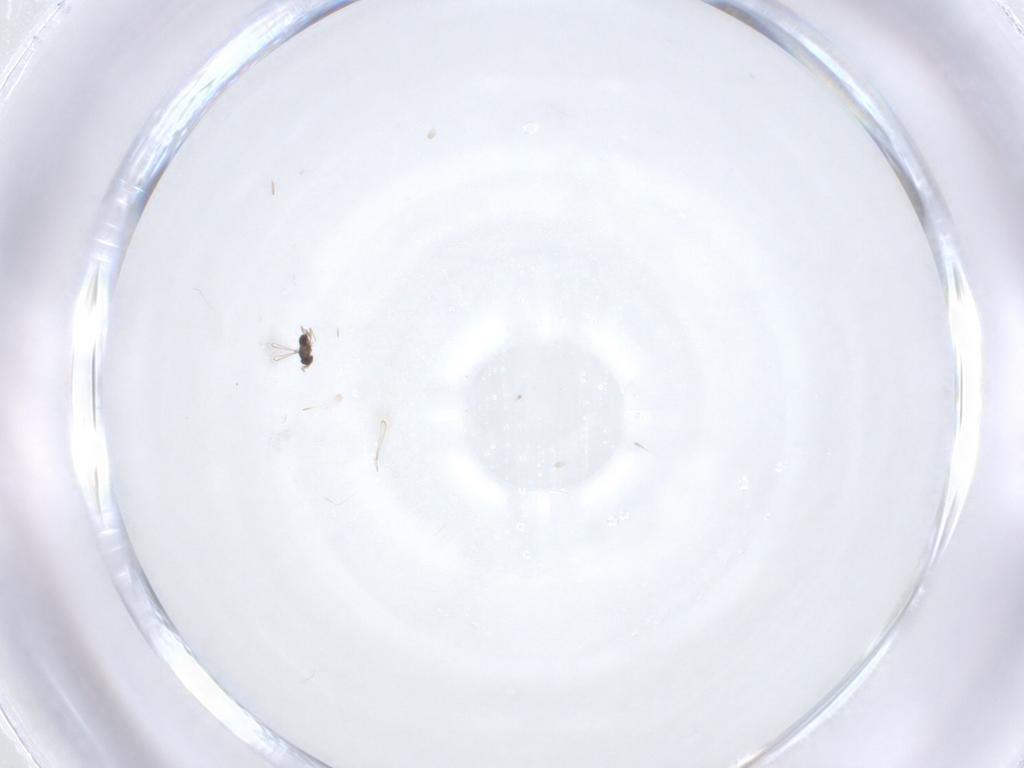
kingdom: Animalia
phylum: Arthropoda
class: Insecta
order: Hymenoptera
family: Mymaridae
